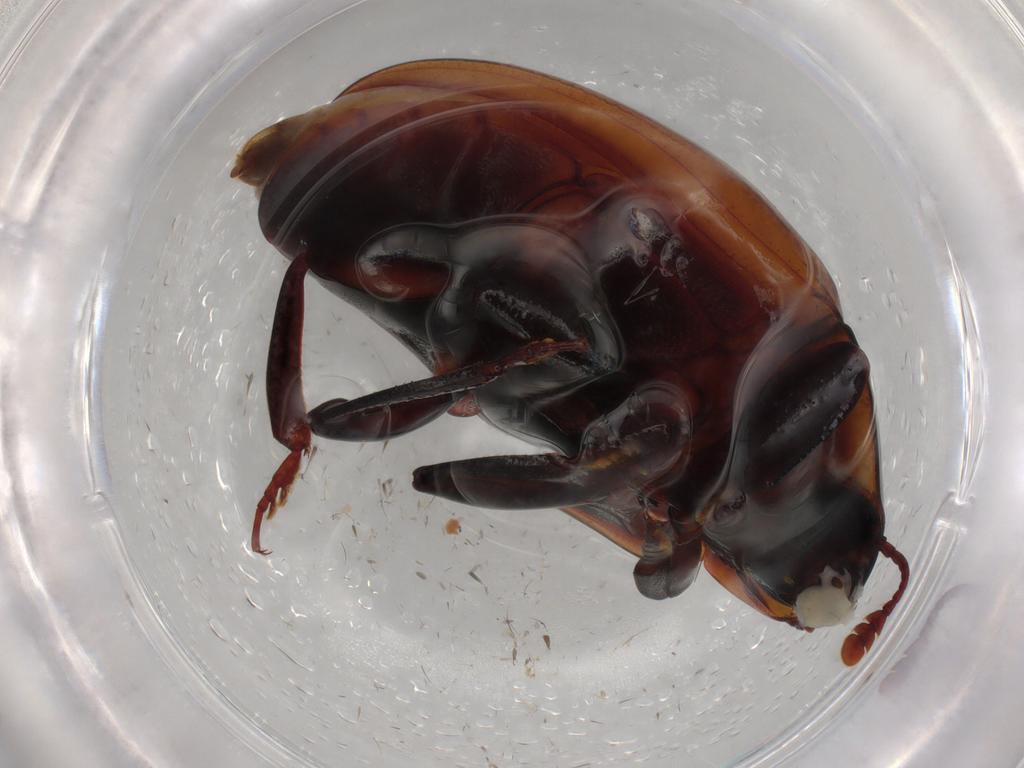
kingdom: Animalia
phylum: Arthropoda
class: Insecta
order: Coleoptera
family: Zopheridae
